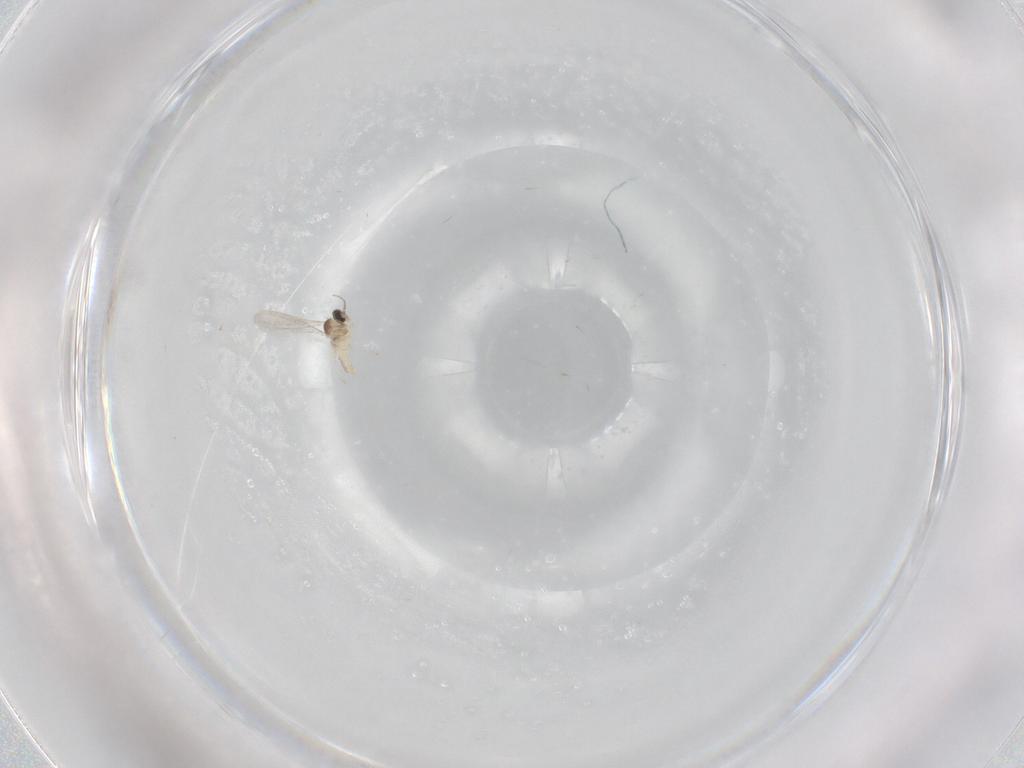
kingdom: Animalia
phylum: Arthropoda
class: Insecta
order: Diptera
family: Cecidomyiidae
